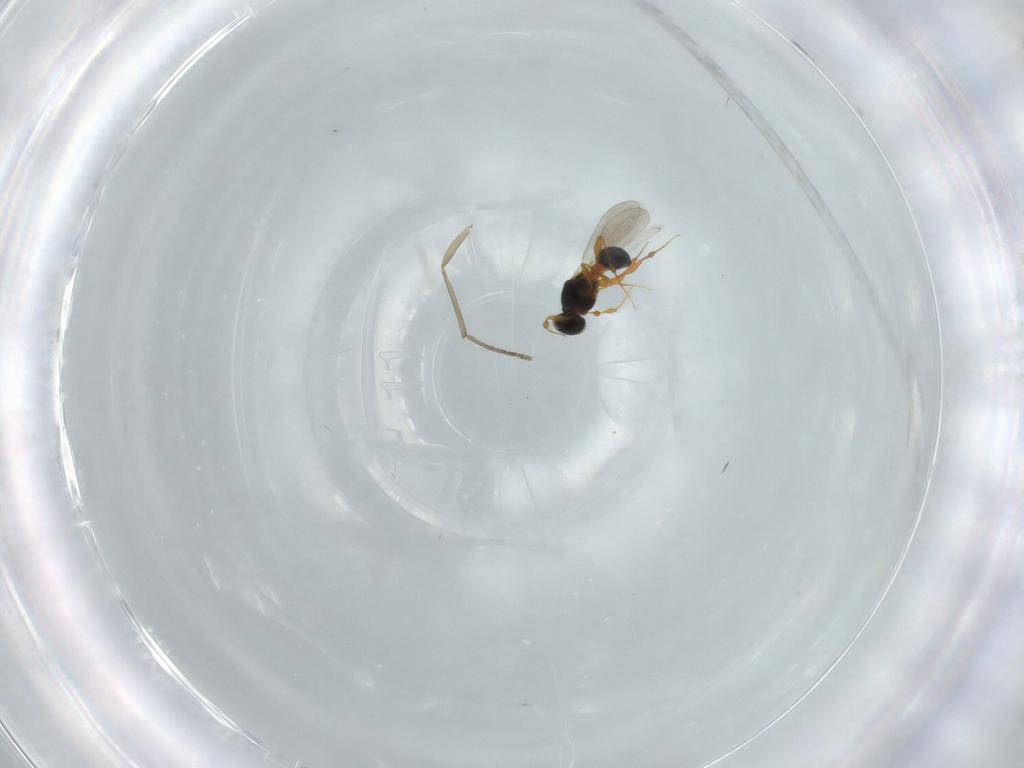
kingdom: Animalia
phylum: Arthropoda
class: Insecta
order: Hymenoptera
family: Platygastridae
